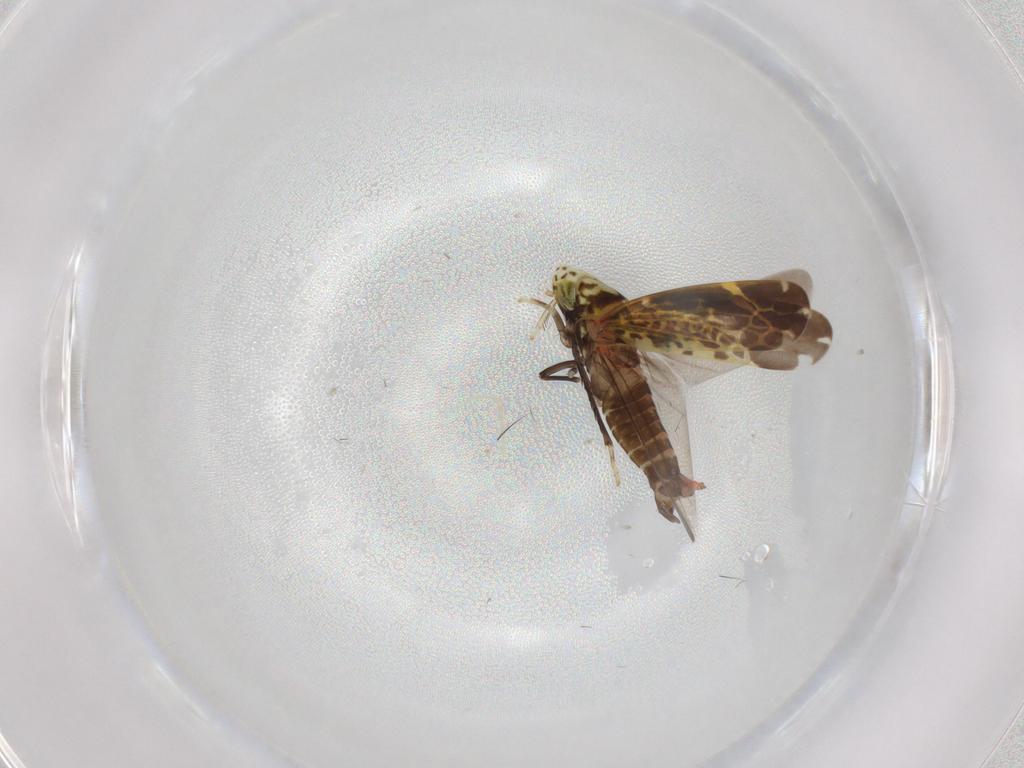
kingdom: Animalia
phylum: Arthropoda
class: Insecta
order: Hemiptera
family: Cicadellidae
